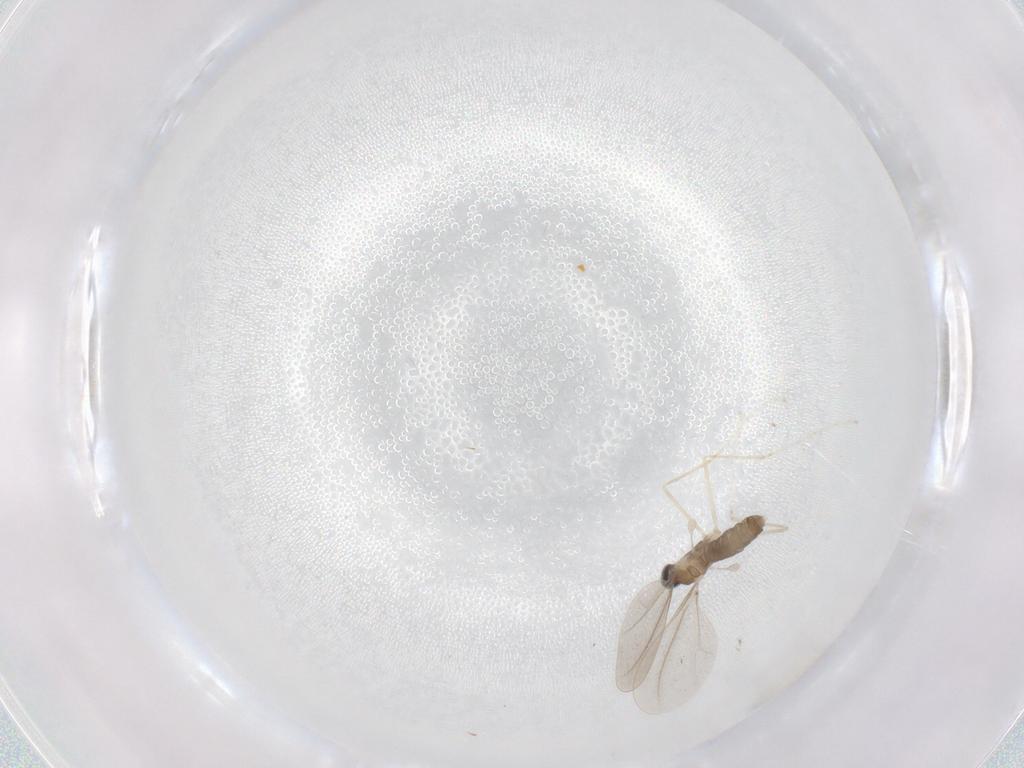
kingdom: Animalia
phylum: Arthropoda
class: Insecta
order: Diptera
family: Cecidomyiidae
